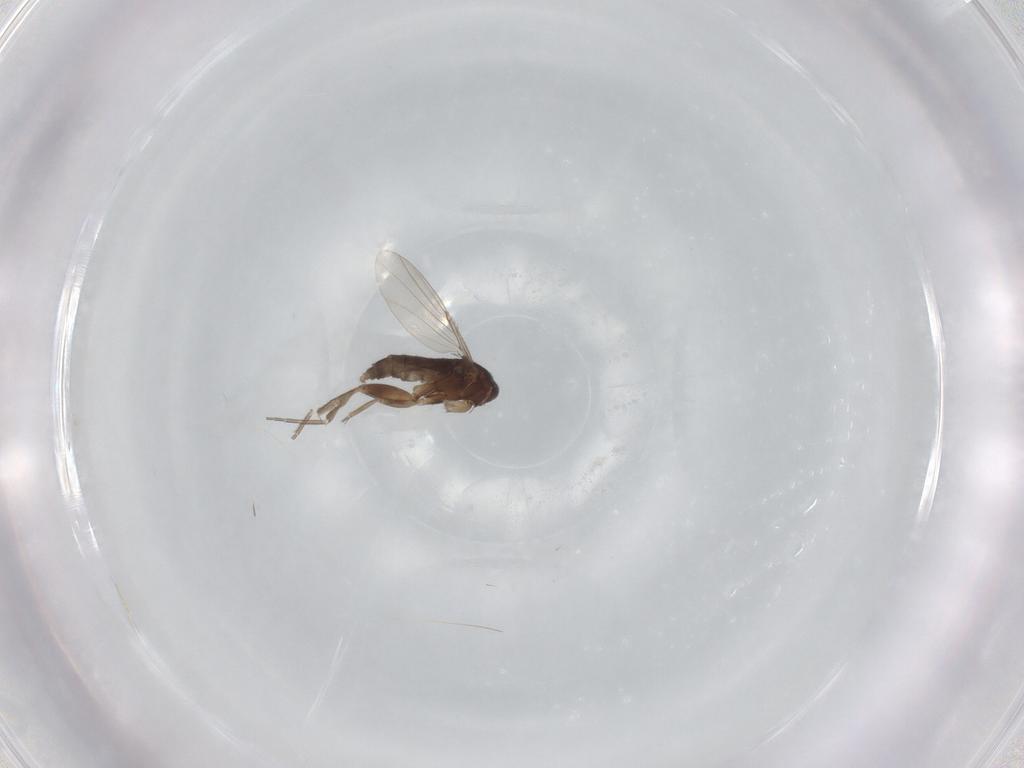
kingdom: Animalia
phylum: Arthropoda
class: Insecta
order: Diptera
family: Phoridae
